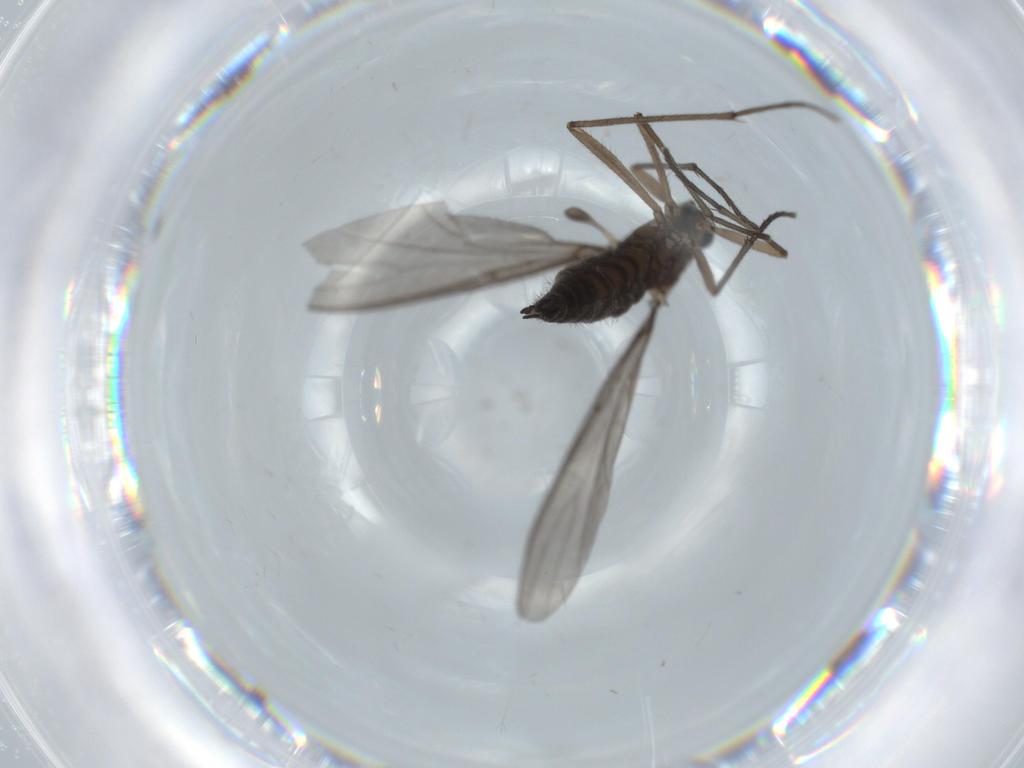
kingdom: Animalia
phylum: Arthropoda
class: Insecta
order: Diptera
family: Sciaridae
